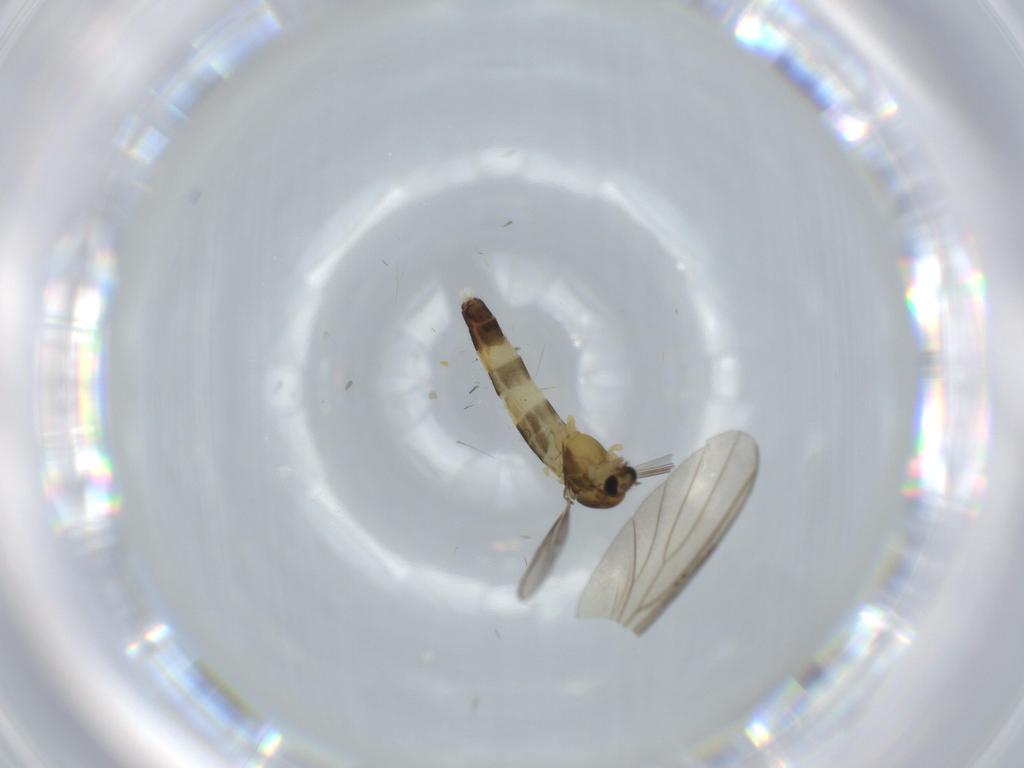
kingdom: Animalia
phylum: Arthropoda
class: Insecta
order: Diptera
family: Chironomidae
